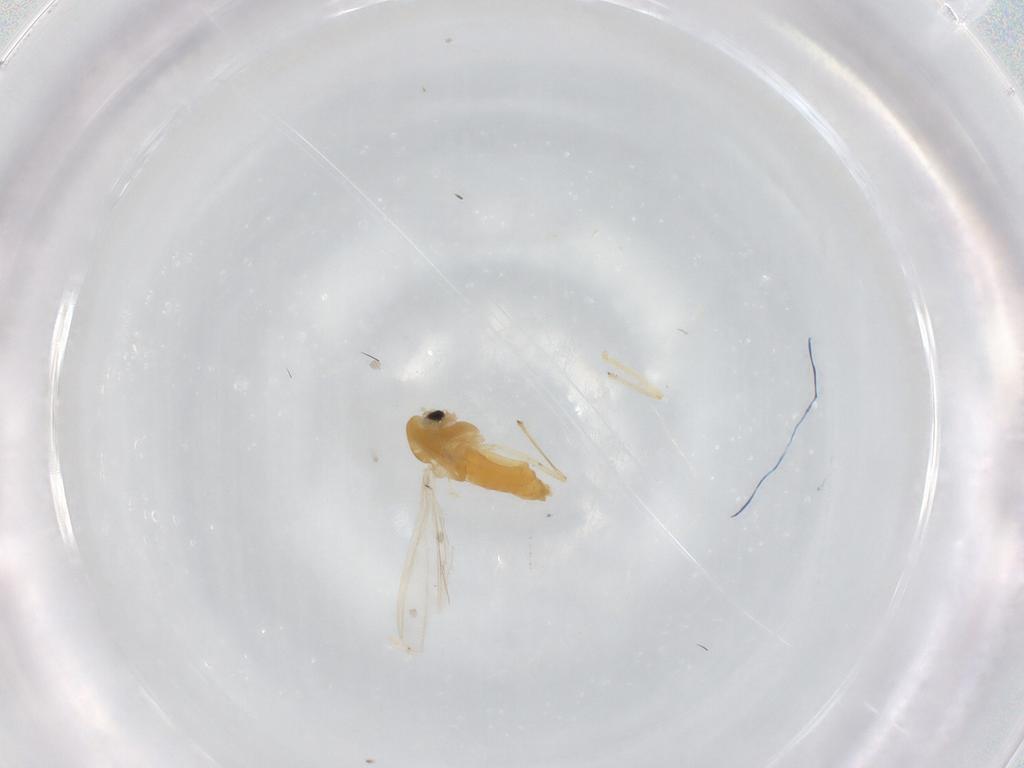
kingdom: Animalia
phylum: Arthropoda
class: Insecta
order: Diptera
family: Chironomidae
